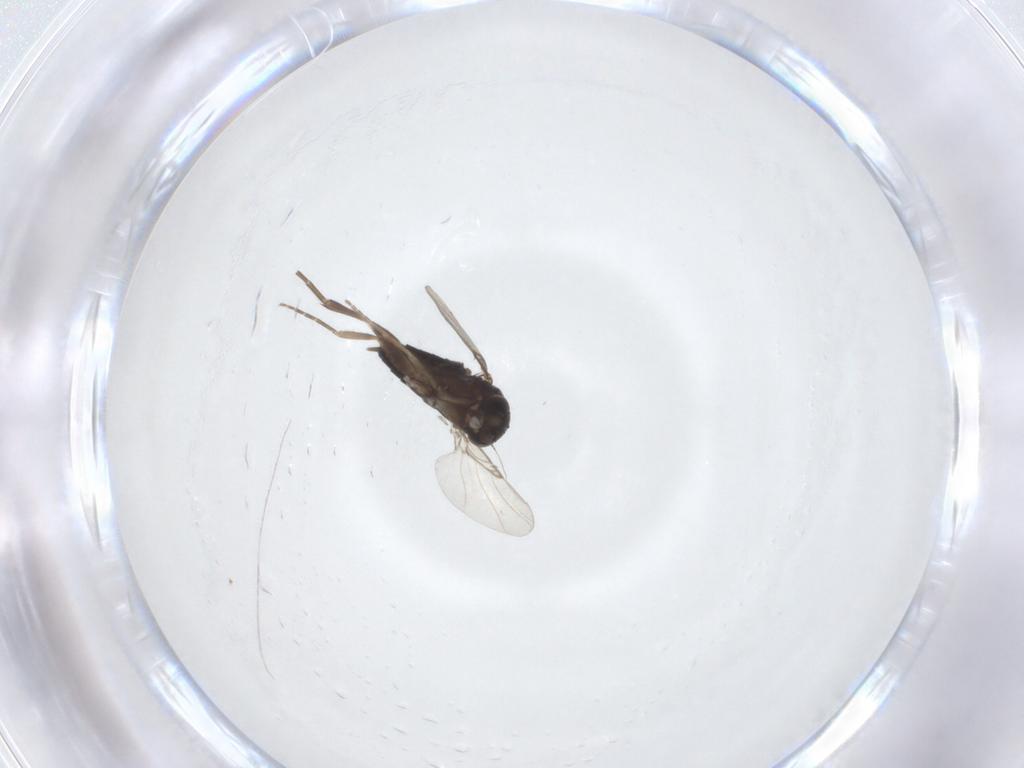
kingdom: Animalia
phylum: Arthropoda
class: Insecta
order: Diptera
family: Phoridae
